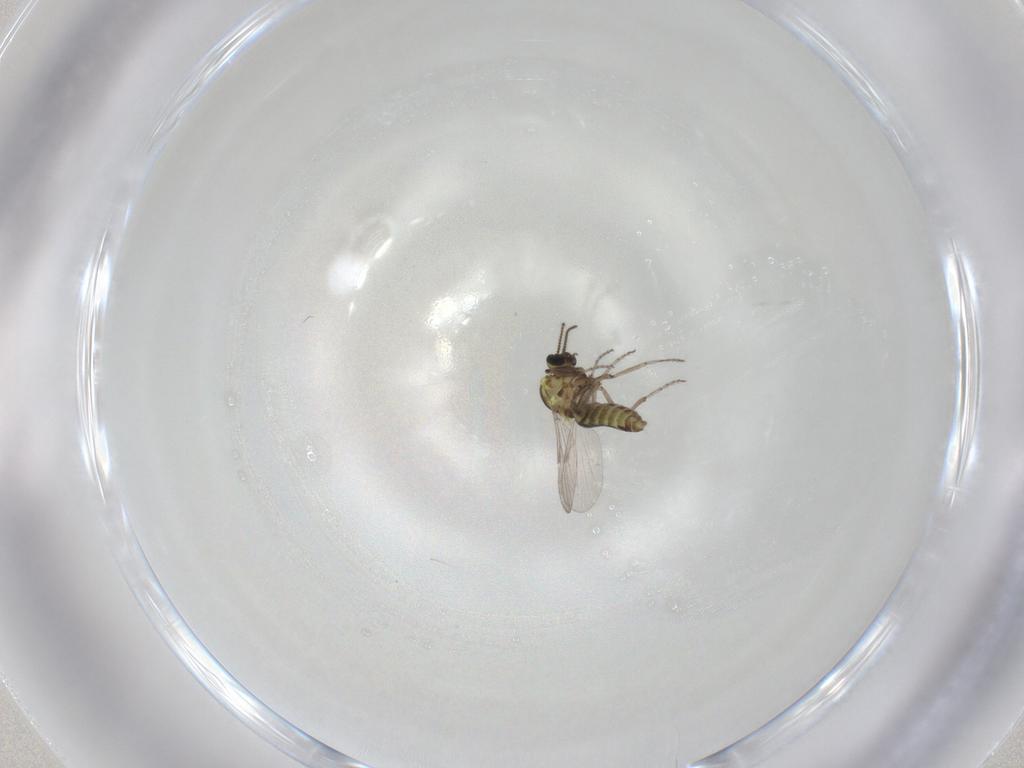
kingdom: Animalia
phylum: Arthropoda
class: Insecta
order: Diptera
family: Ceratopogonidae
